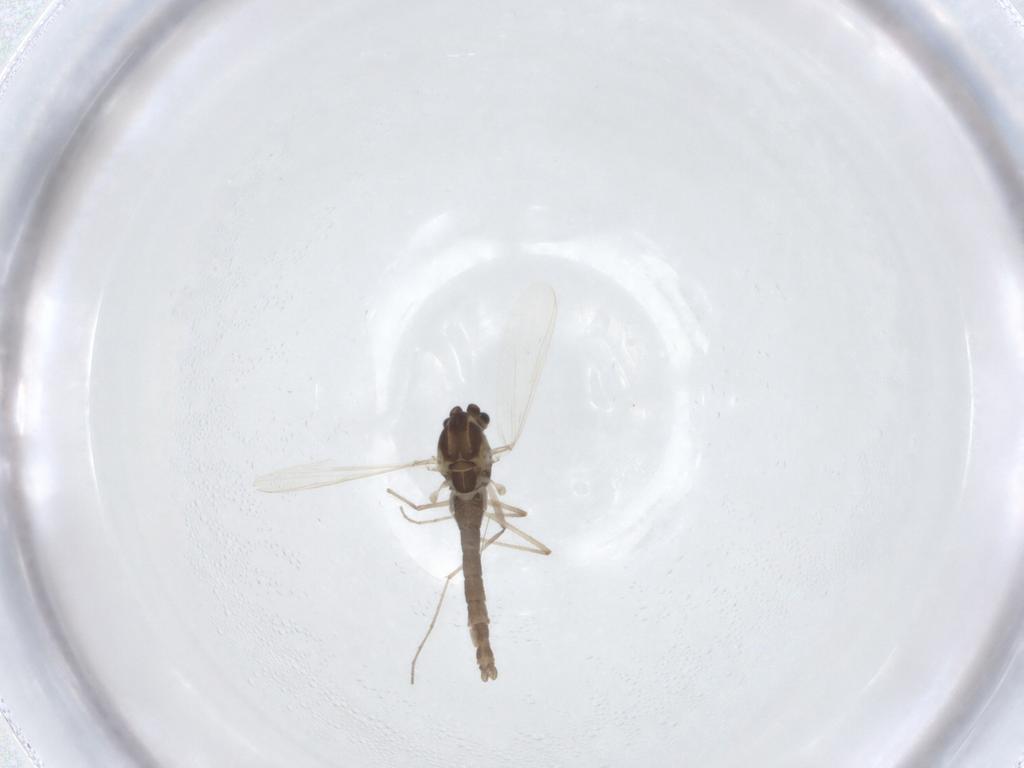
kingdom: Animalia
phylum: Arthropoda
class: Insecta
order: Diptera
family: Chironomidae
